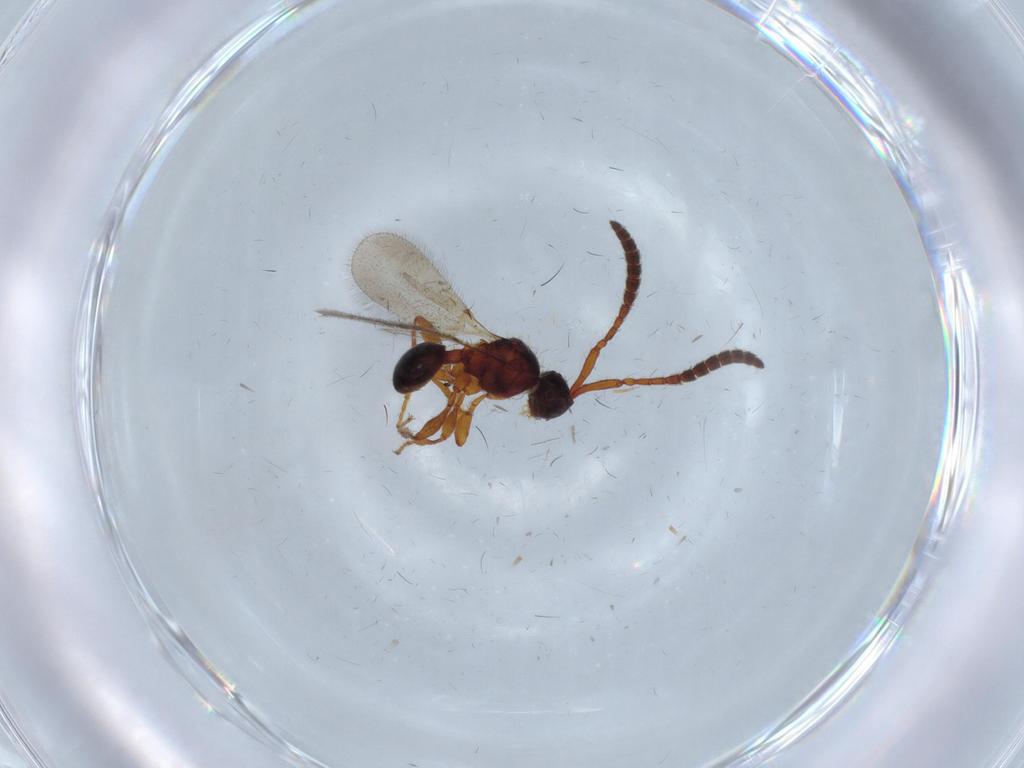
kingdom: Animalia
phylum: Arthropoda
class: Insecta
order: Hymenoptera
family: Diapriidae
